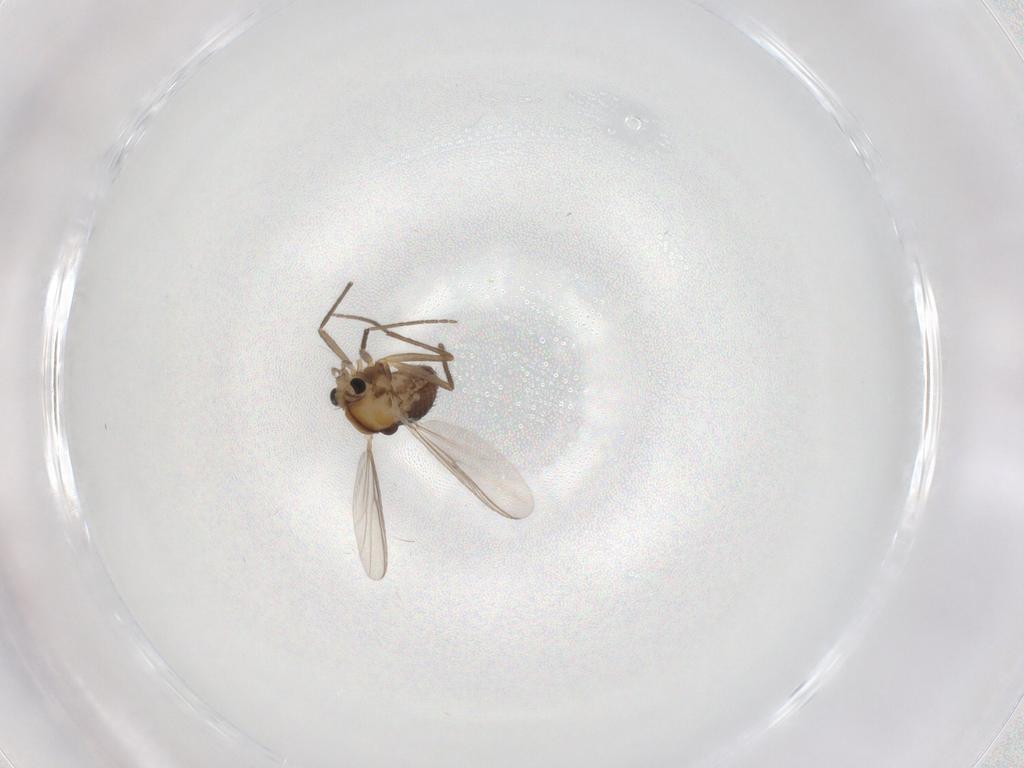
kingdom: Animalia
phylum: Arthropoda
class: Insecta
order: Diptera
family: Chironomidae
